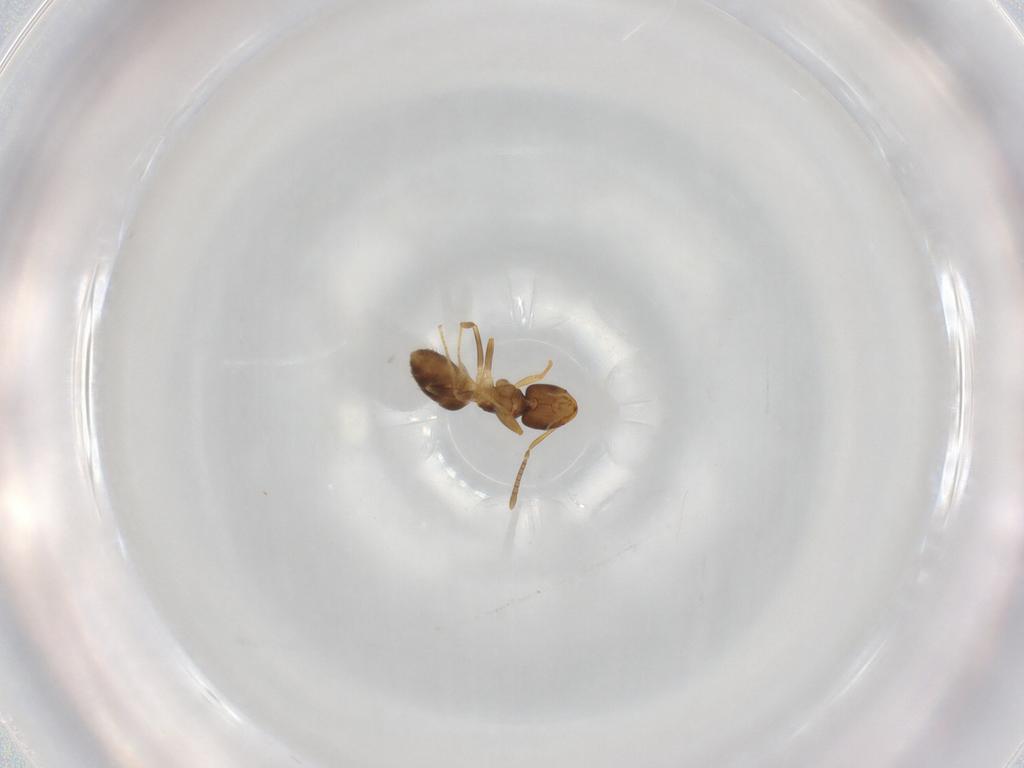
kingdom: Animalia
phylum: Arthropoda
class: Insecta
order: Hymenoptera
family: Formicidae
